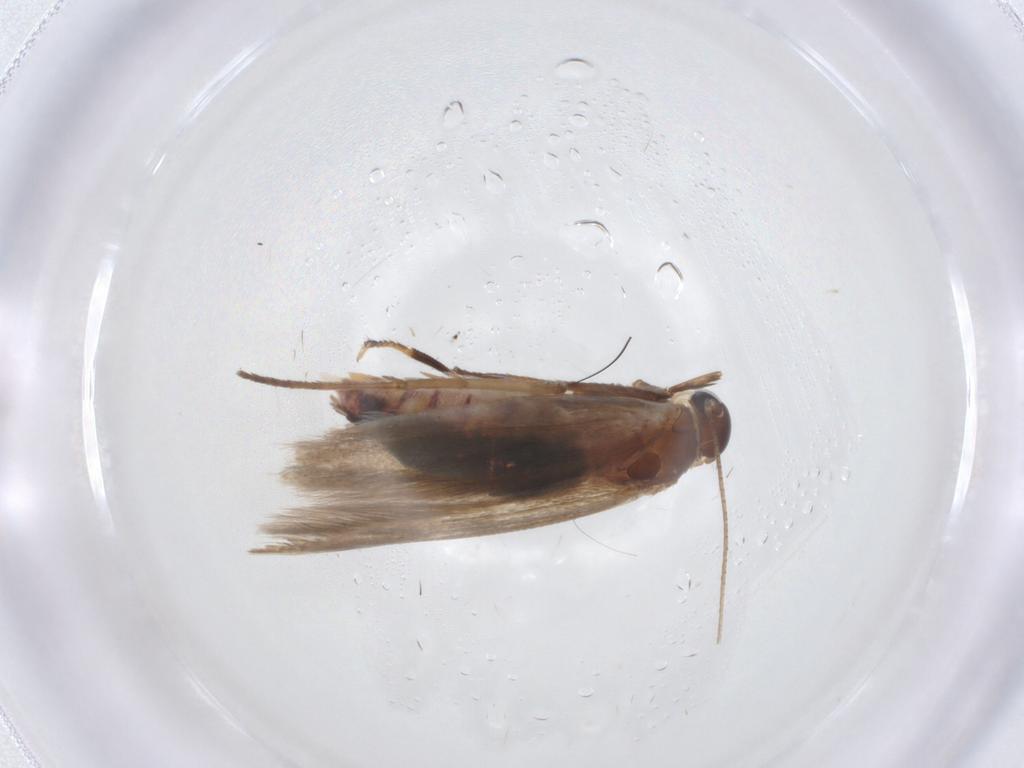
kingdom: Animalia
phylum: Arthropoda
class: Insecta
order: Lepidoptera
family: Cosmopterigidae
